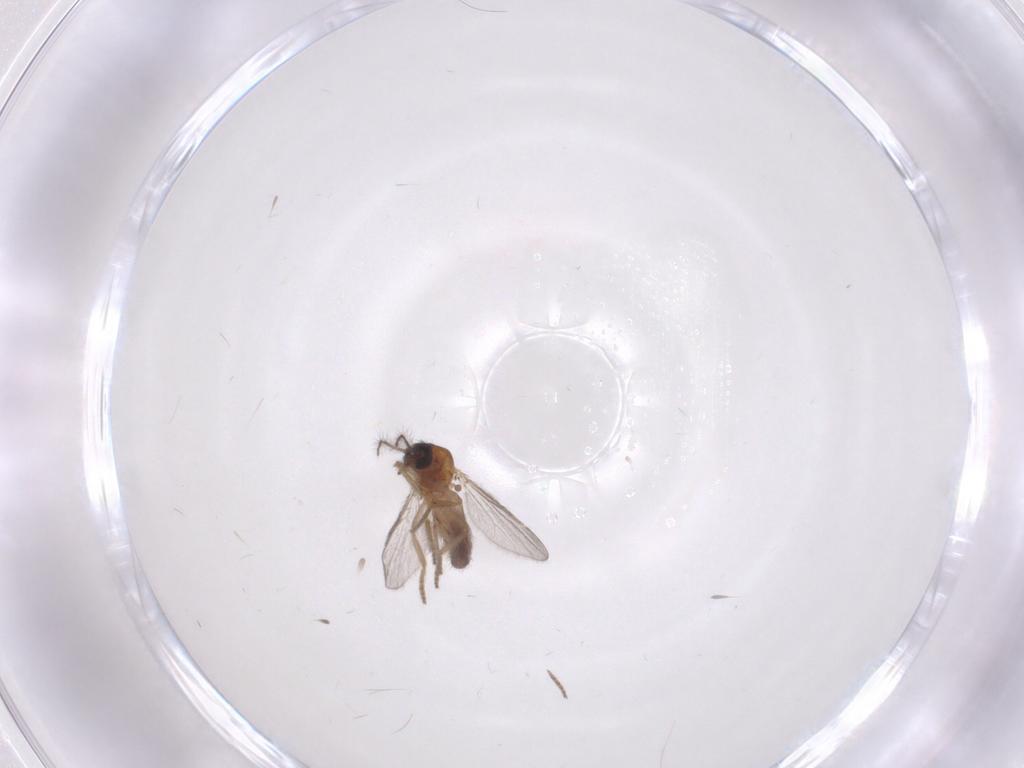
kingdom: Animalia
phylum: Arthropoda
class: Insecta
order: Diptera
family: Ceratopogonidae
